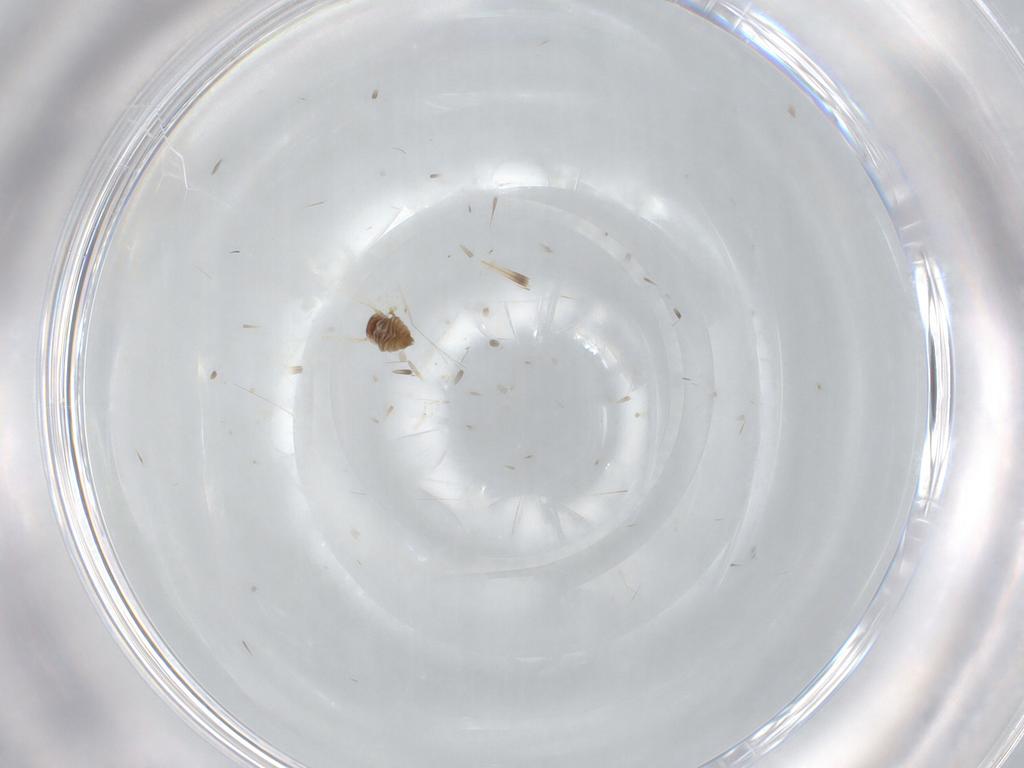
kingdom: Animalia
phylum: Arthropoda
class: Insecta
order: Diptera
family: Cecidomyiidae
